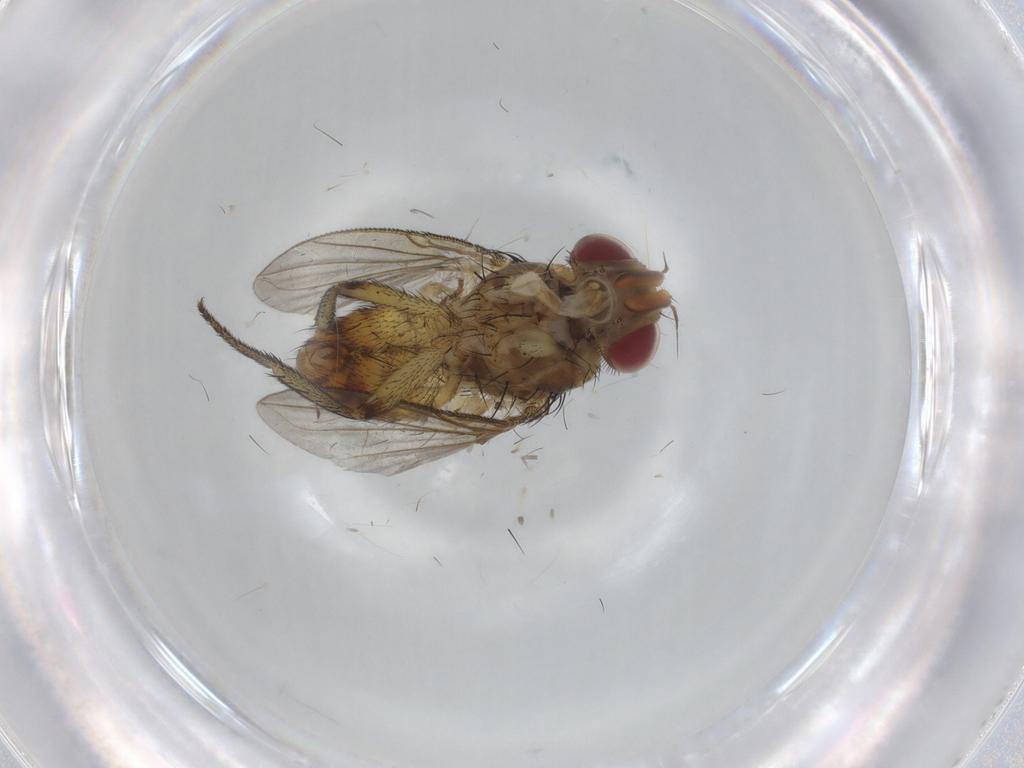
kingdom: Animalia
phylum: Arthropoda
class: Insecta
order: Diptera
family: Tachinidae
